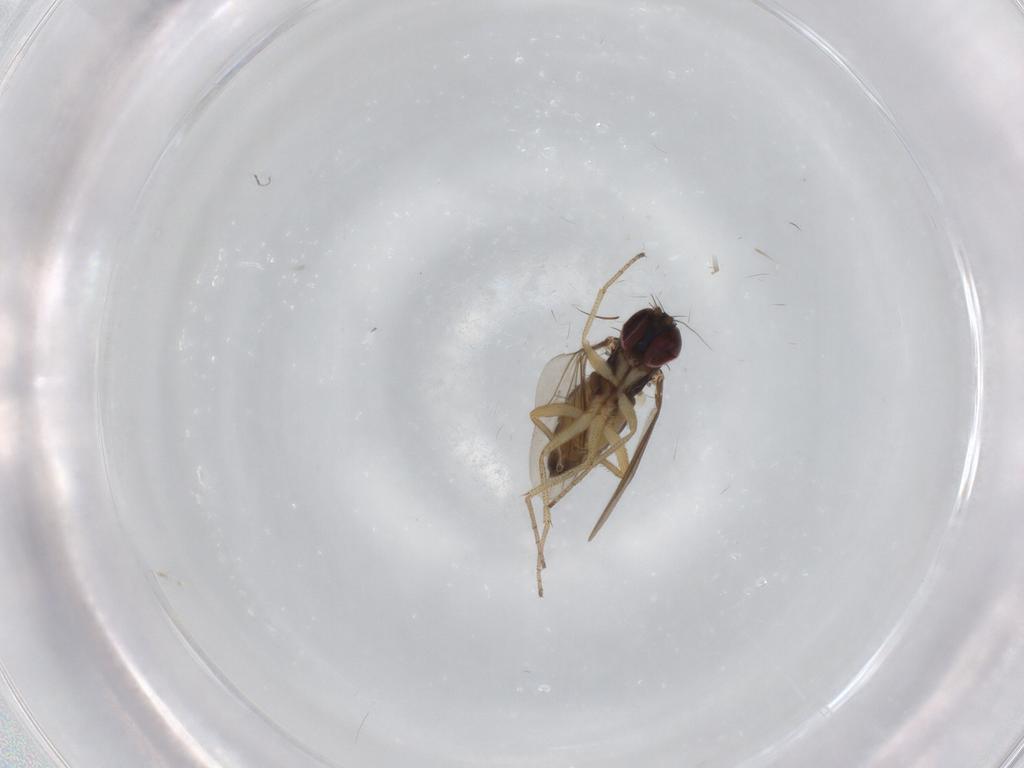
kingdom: Animalia
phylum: Arthropoda
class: Insecta
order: Diptera
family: Dolichopodidae
